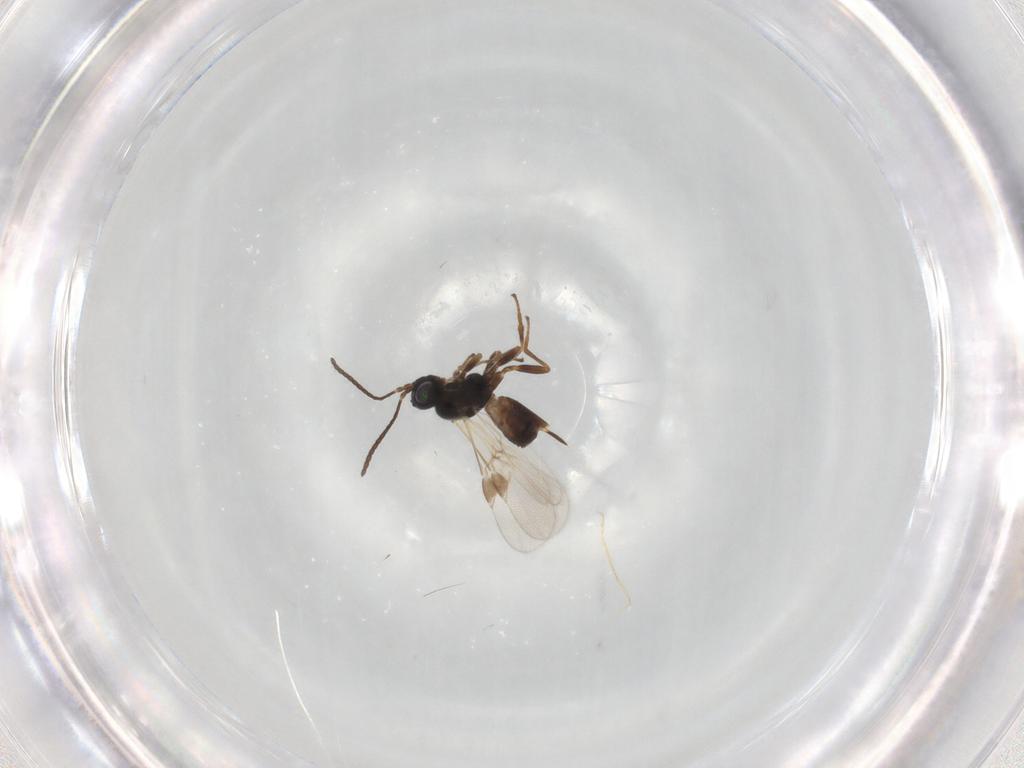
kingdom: Animalia
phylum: Arthropoda
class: Insecta
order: Hymenoptera
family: Braconidae
